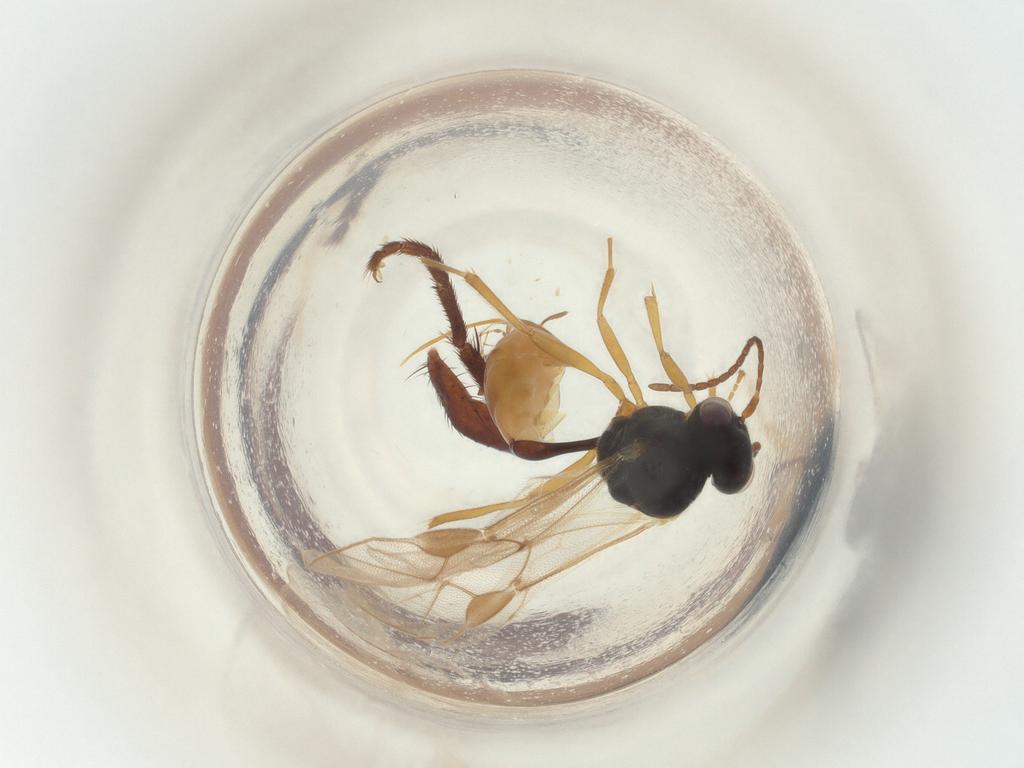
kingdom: Animalia
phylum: Arthropoda
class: Insecta
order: Hymenoptera
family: Ichneumonidae
